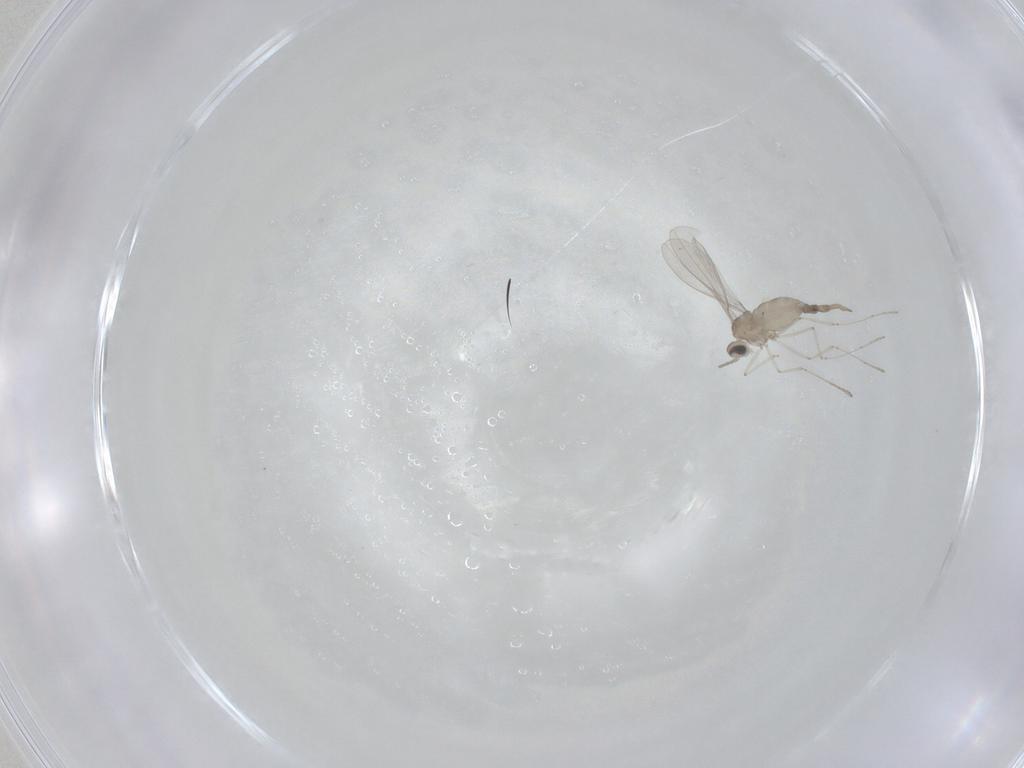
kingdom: Animalia
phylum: Arthropoda
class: Insecta
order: Diptera
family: Cecidomyiidae
